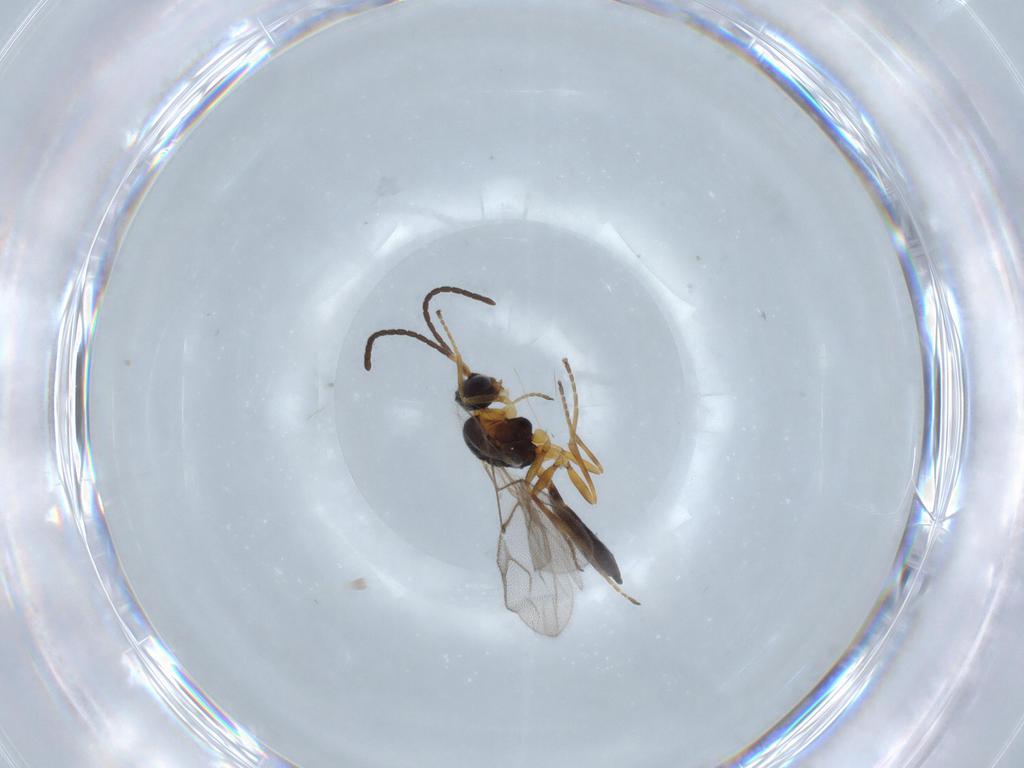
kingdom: Animalia
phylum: Arthropoda
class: Insecta
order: Hymenoptera
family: Braconidae
